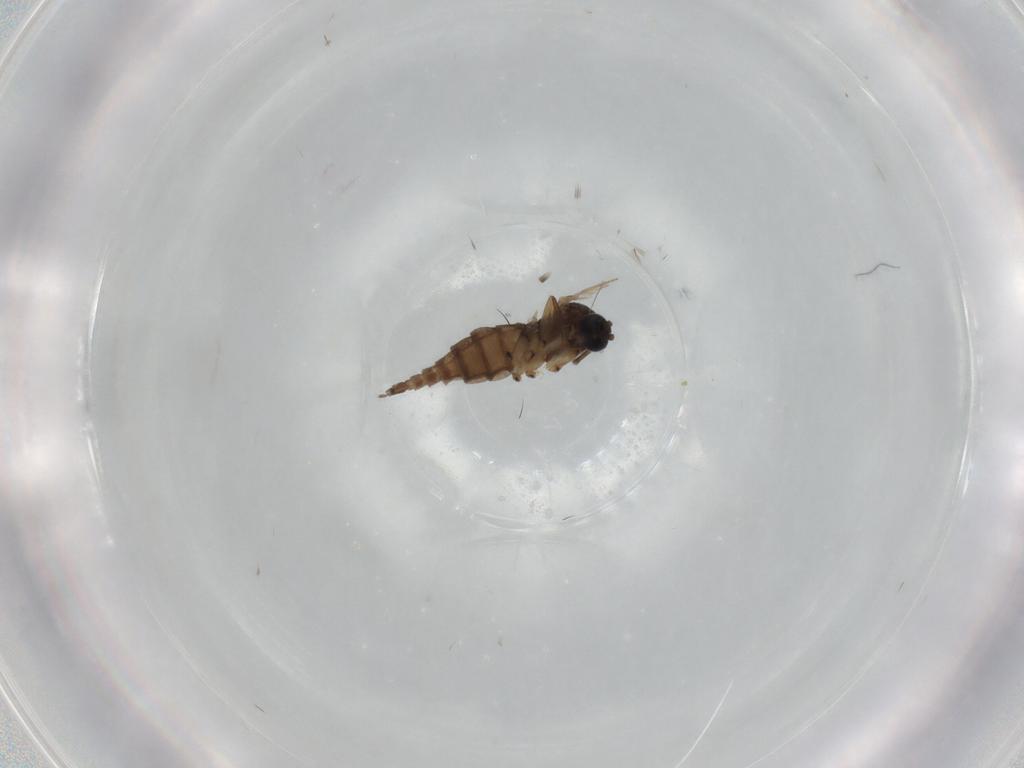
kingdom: Animalia
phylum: Arthropoda
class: Insecta
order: Diptera
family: Sciaridae
